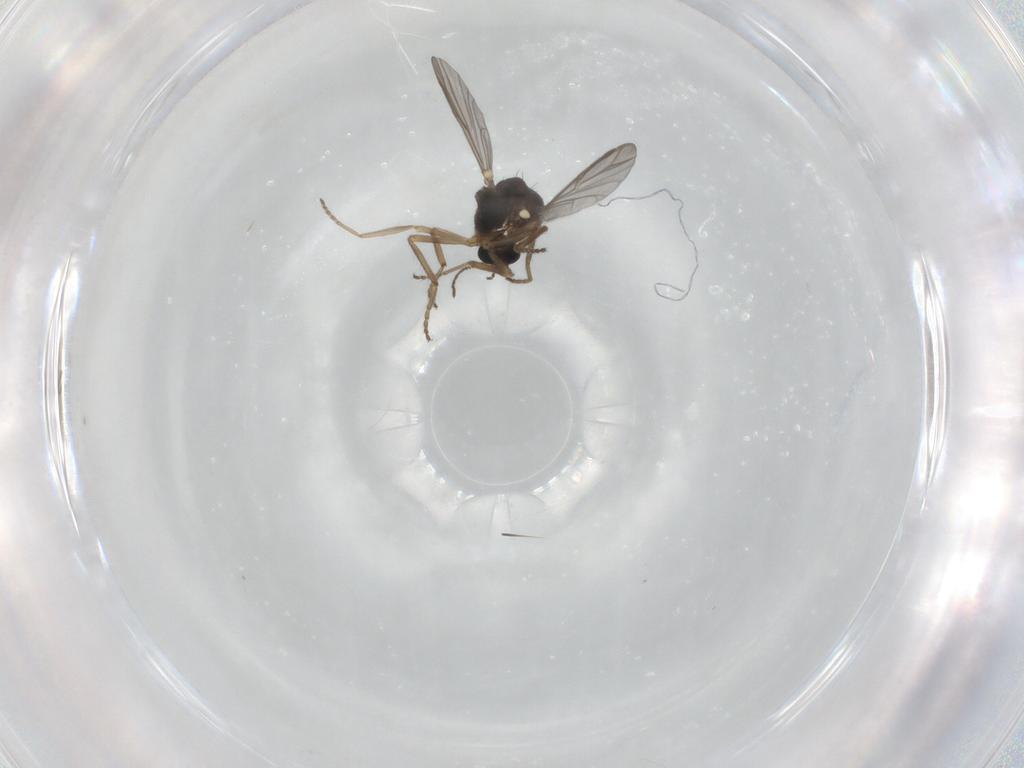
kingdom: Animalia
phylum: Arthropoda
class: Insecta
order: Diptera
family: Ceratopogonidae
